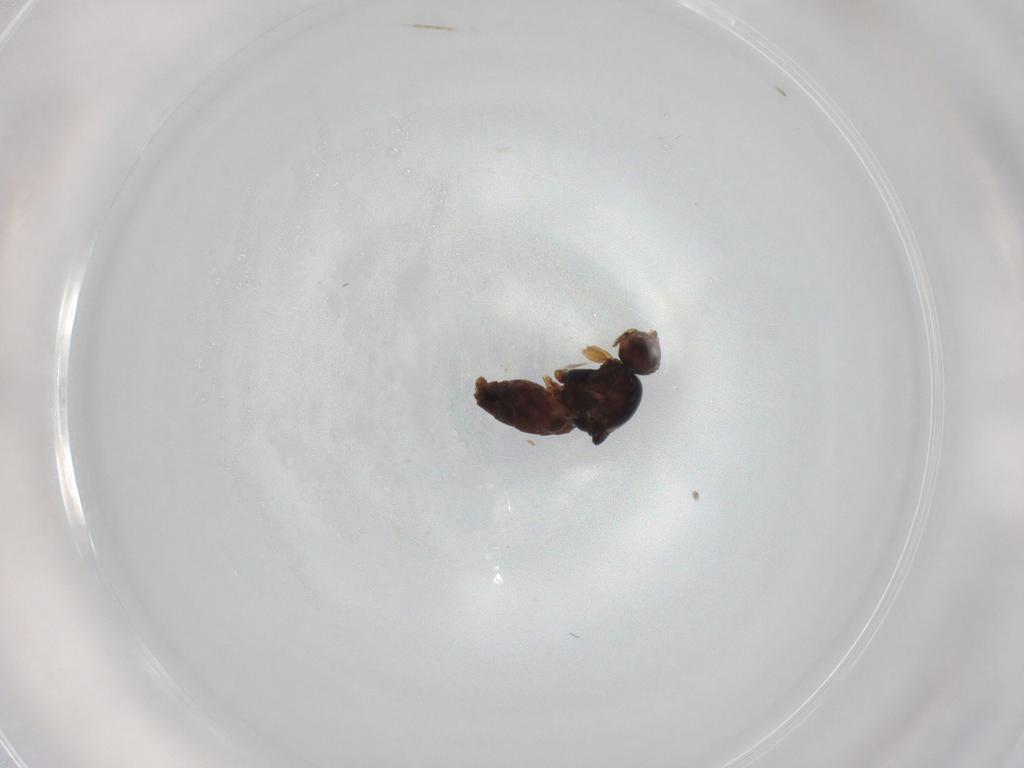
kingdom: Animalia
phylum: Arthropoda
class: Insecta
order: Diptera
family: Chloropidae
